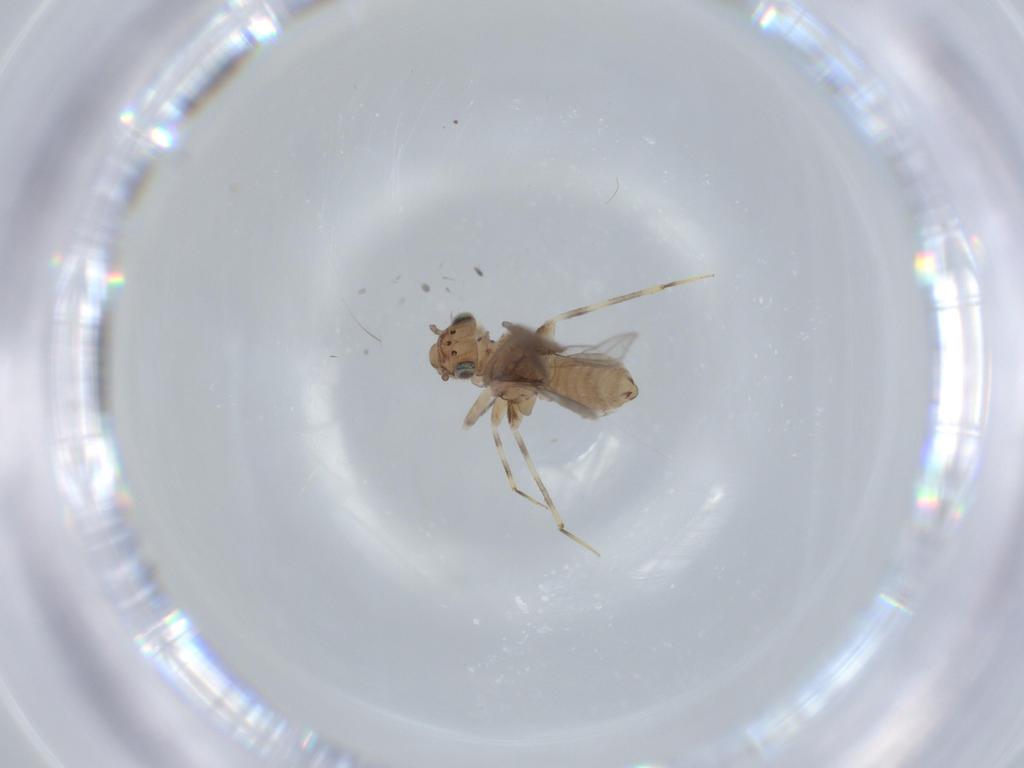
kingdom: Animalia
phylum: Arthropoda
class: Insecta
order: Psocodea
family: Lepidopsocidae
